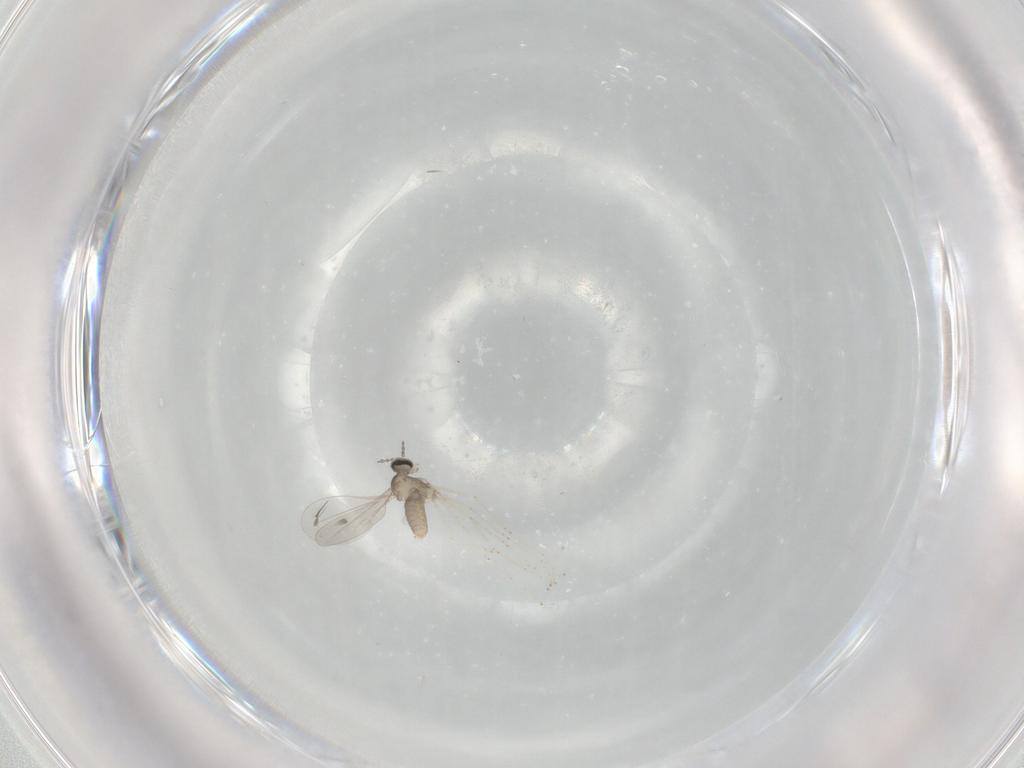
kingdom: Animalia
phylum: Arthropoda
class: Insecta
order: Diptera
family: Cecidomyiidae
